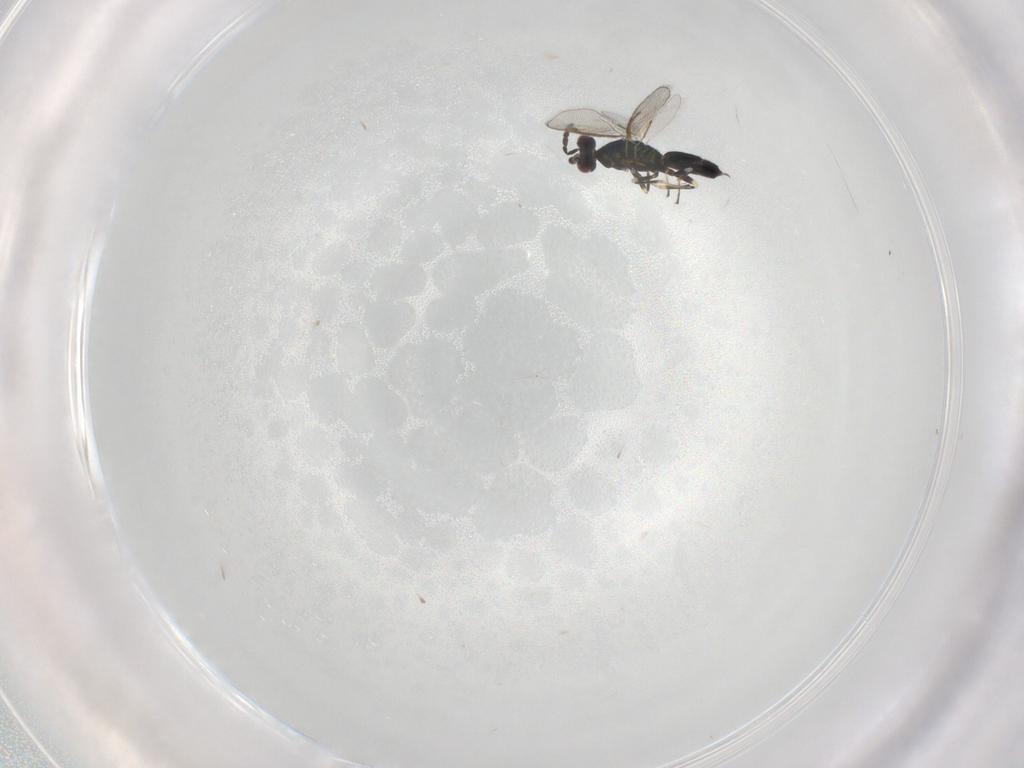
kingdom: Animalia
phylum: Arthropoda
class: Insecta
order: Hymenoptera
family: Eulophidae
